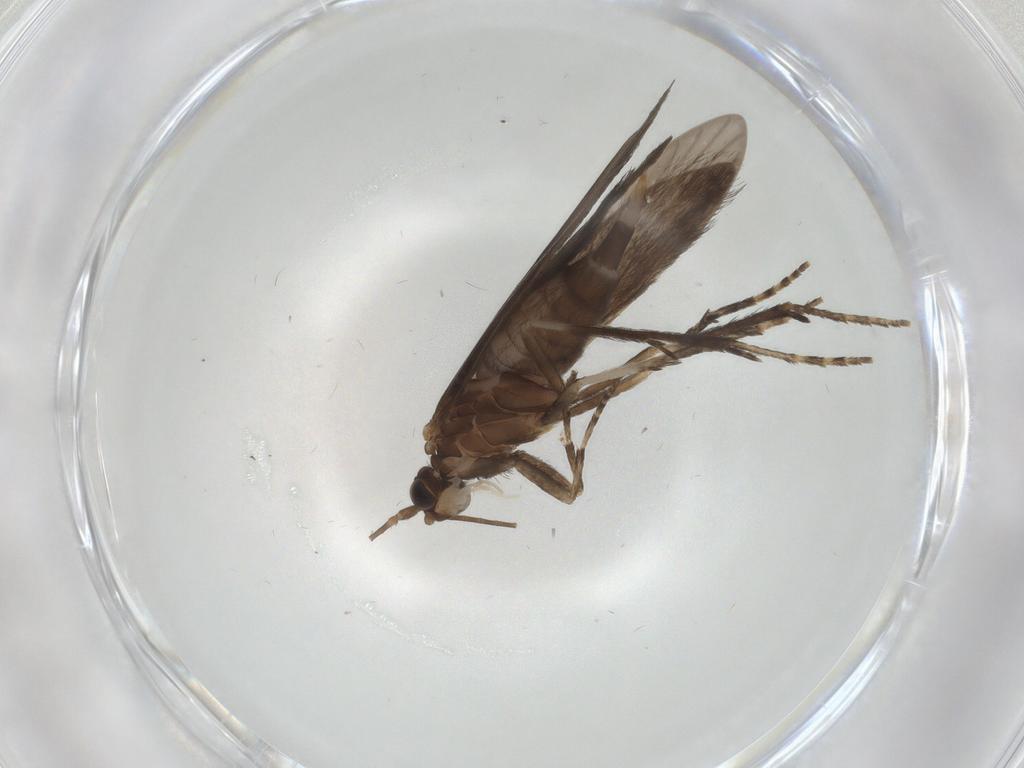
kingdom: Animalia
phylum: Arthropoda
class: Insecta
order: Trichoptera
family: Xiphocentronidae
